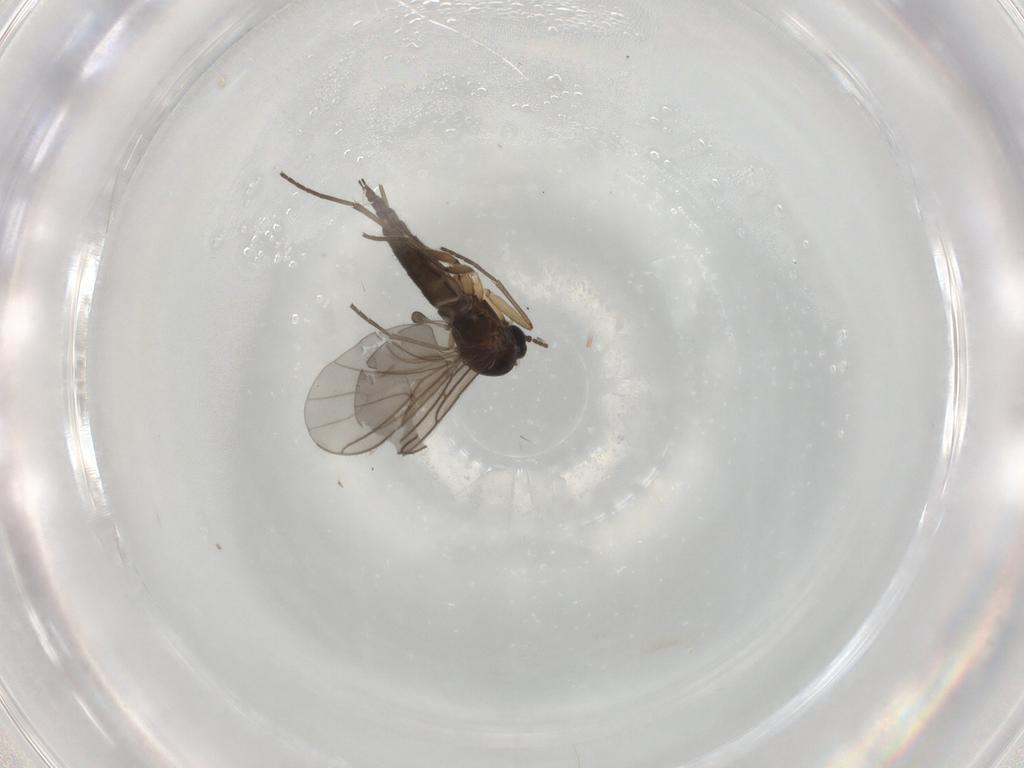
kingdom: Animalia
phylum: Arthropoda
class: Insecta
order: Diptera
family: Sciaridae
